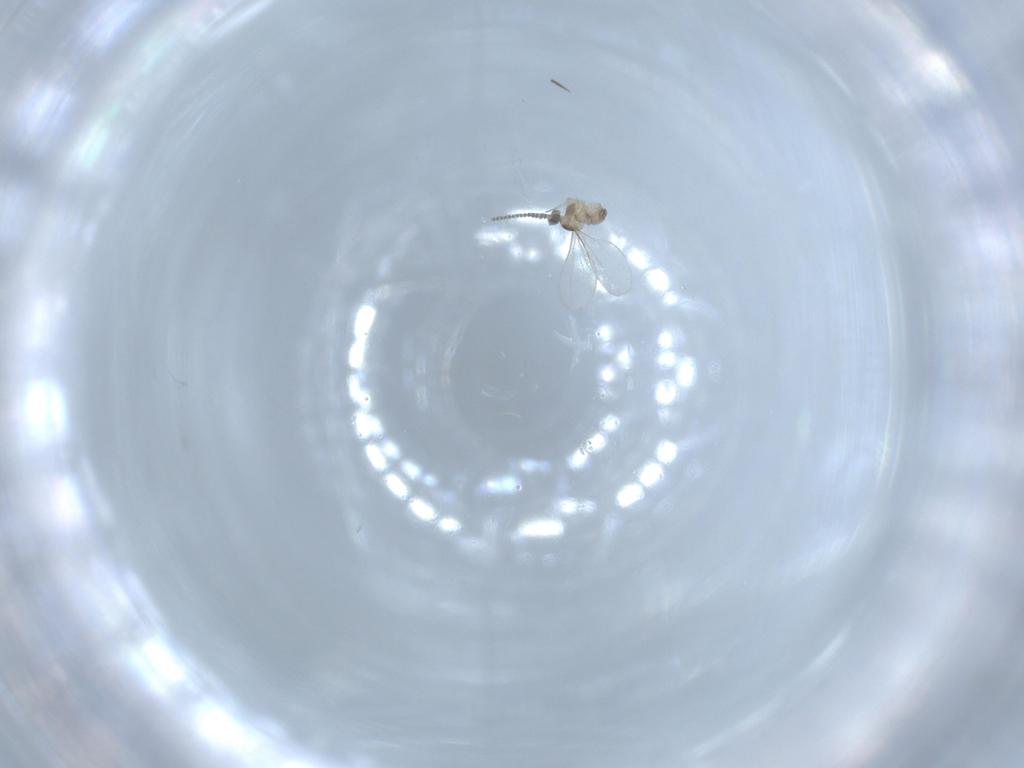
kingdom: Animalia
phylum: Arthropoda
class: Insecta
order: Diptera
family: Cecidomyiidae
